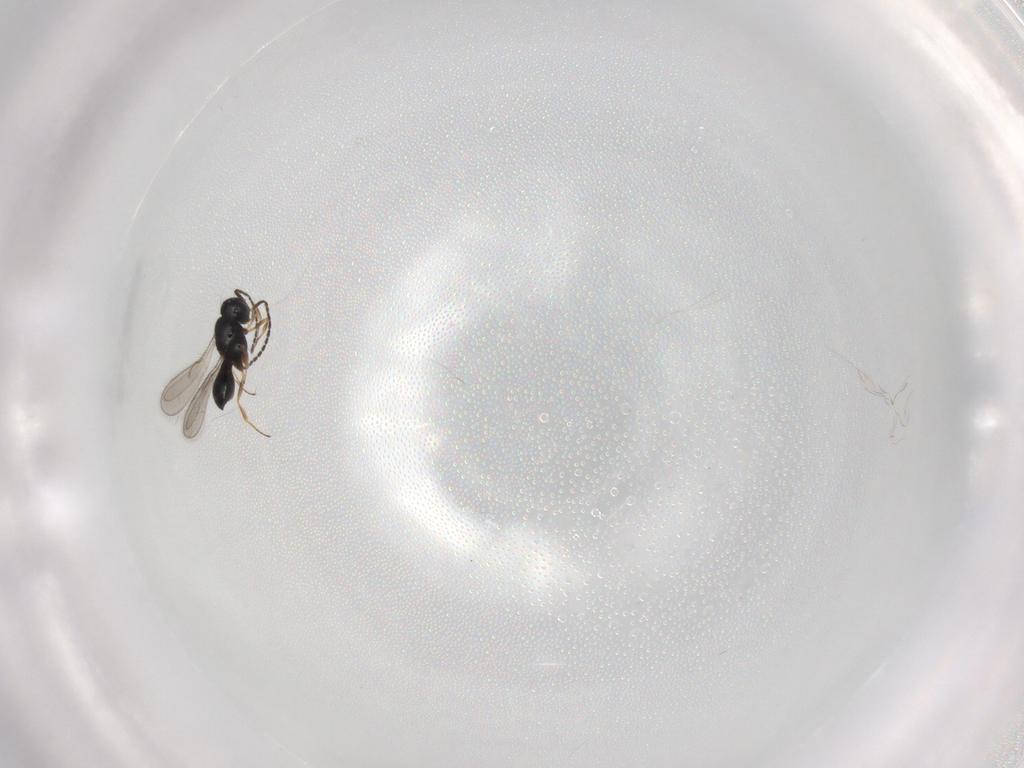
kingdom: Animalia
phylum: Arthropoda
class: Insecta
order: Hymenoptera
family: Scelionidae
